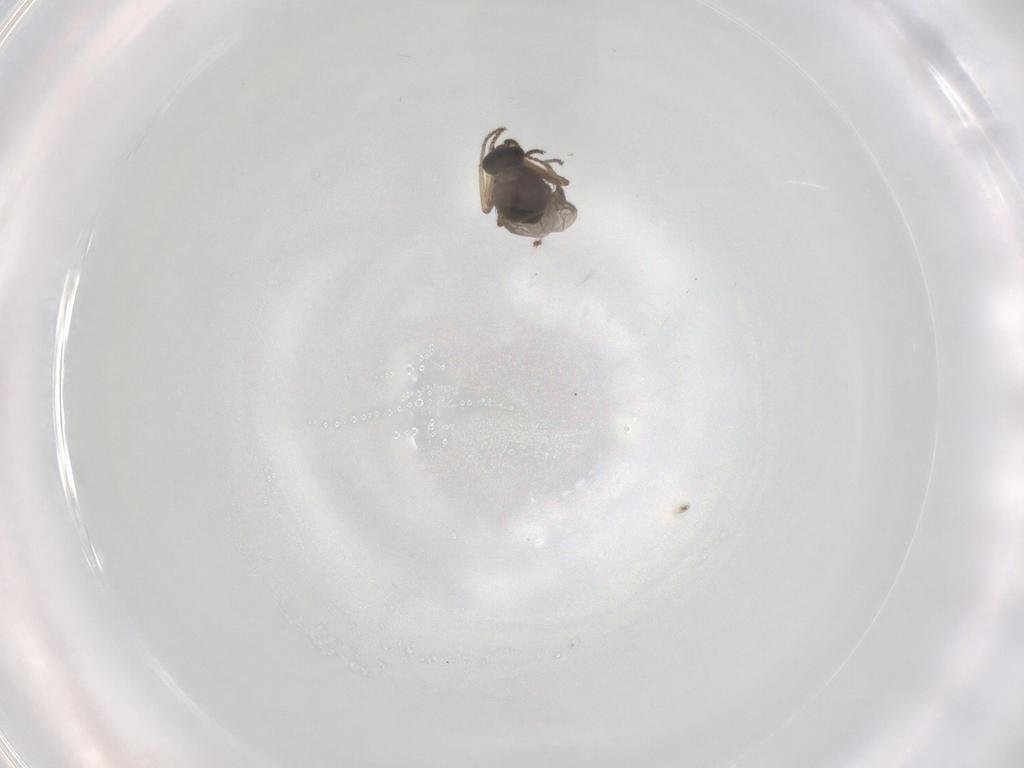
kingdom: Animalia
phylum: Arthropoda
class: Insecta
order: Diptera
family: Ceratopogonidae
